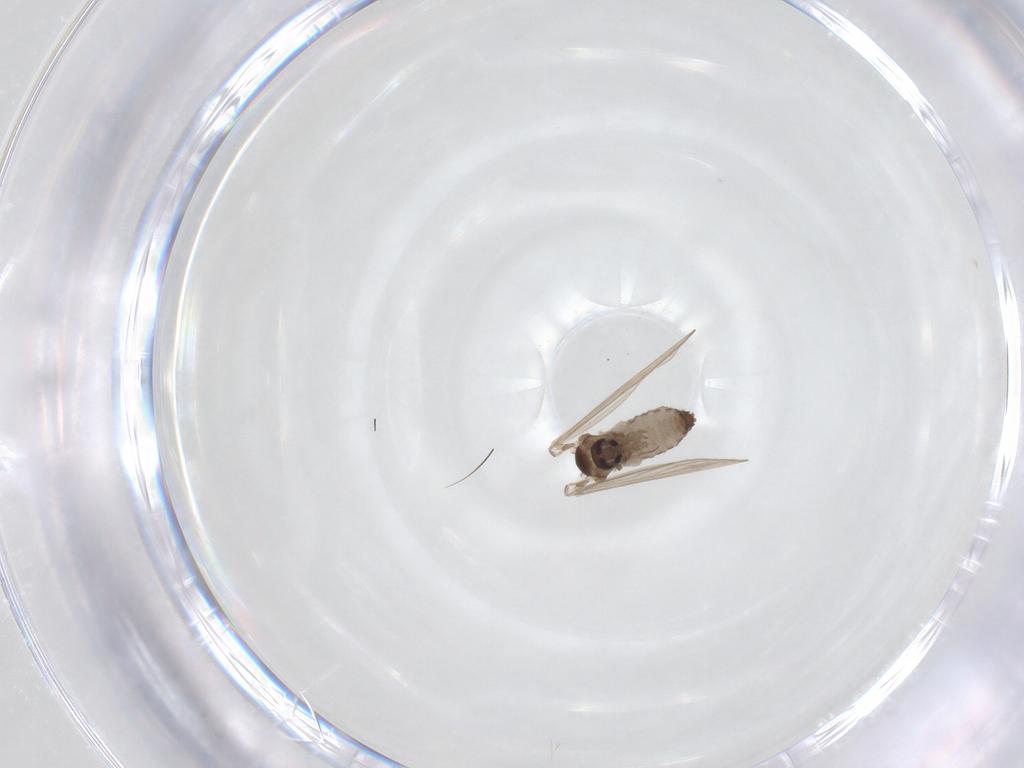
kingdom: Animalia
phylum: Arthropoda
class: Insecta
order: Diptera
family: Psychodidae
